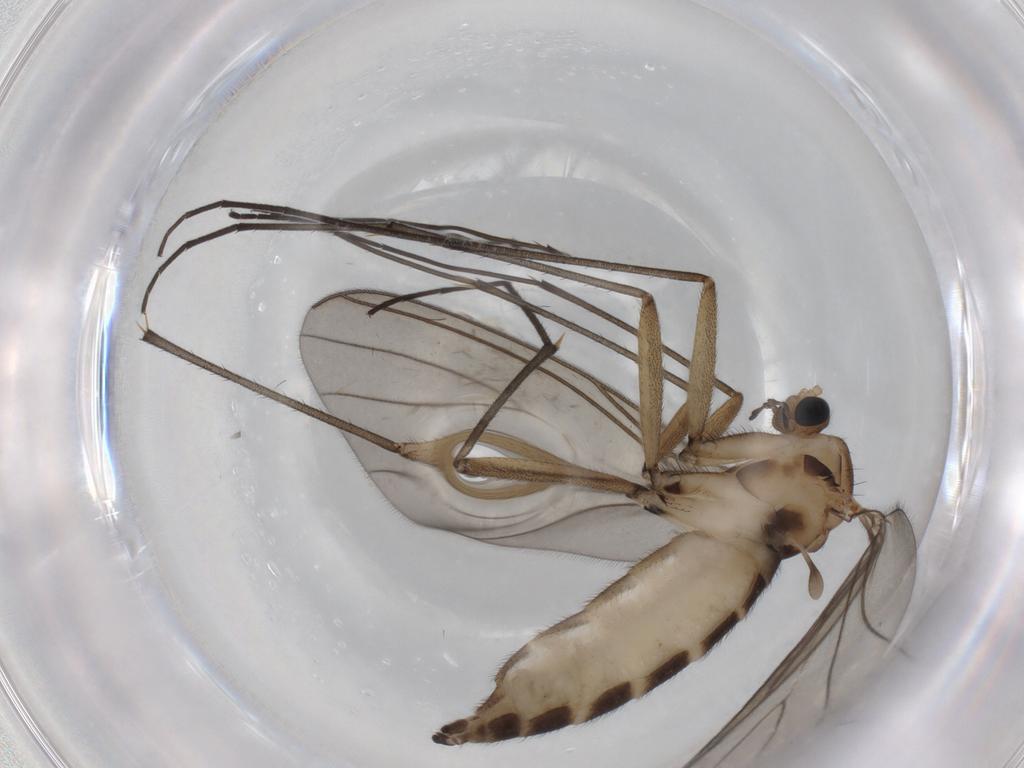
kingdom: Animalia
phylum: Arthropoda
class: Insecta
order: Diptera
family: Sciaridae
